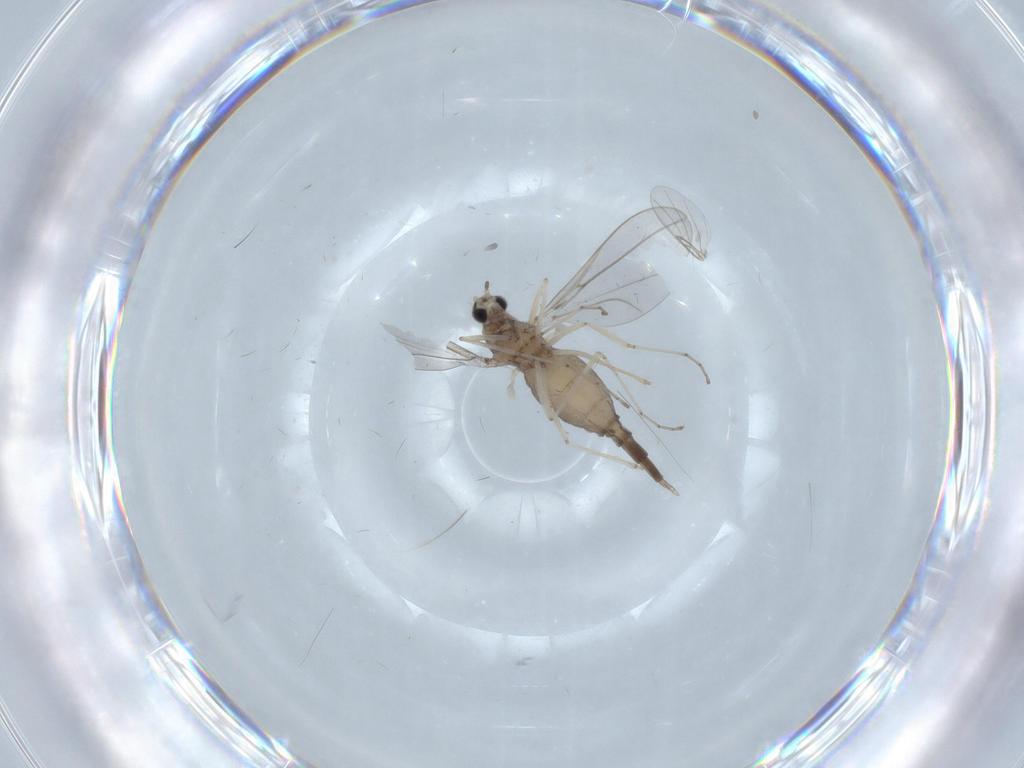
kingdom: Animalia
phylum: Arthropoda
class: Insecta
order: Diptera
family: Cecidomyiidae
